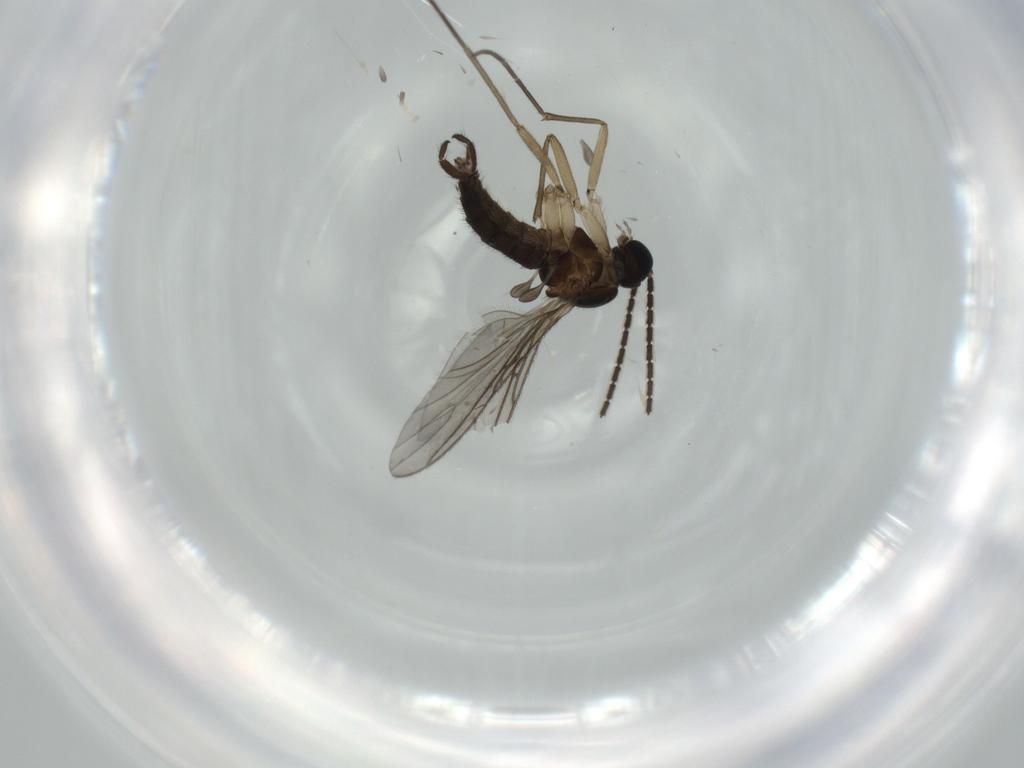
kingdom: Animalia
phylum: Arthropoda
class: Insecta
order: Diptera
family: Sciaridae
